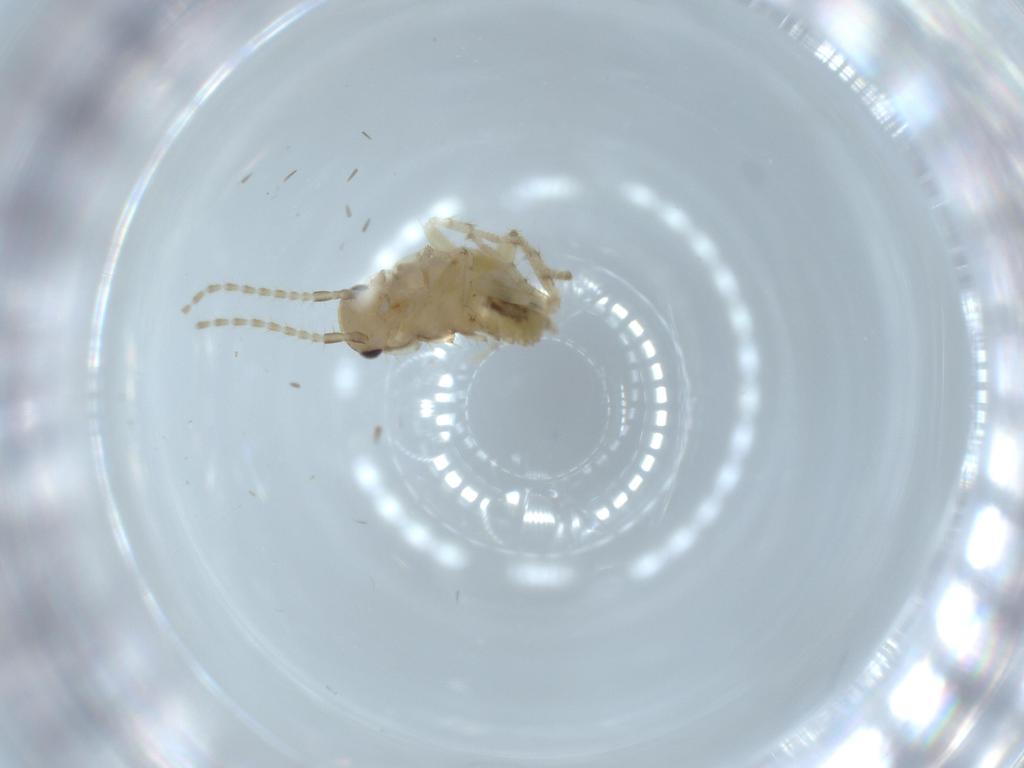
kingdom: Animalia
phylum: Arthropoda
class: Insecta
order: Blattodea
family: Ectobiidae
